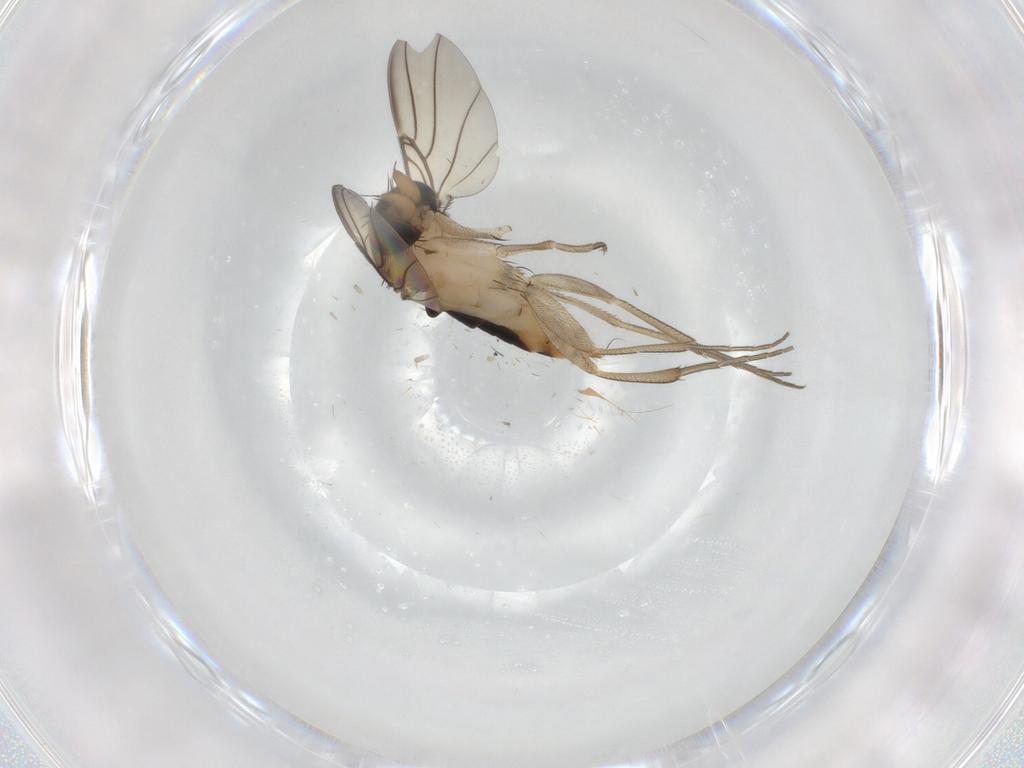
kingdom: Animalia
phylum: Arthropoda
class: Insecta
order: Diptera
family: Phoridae
